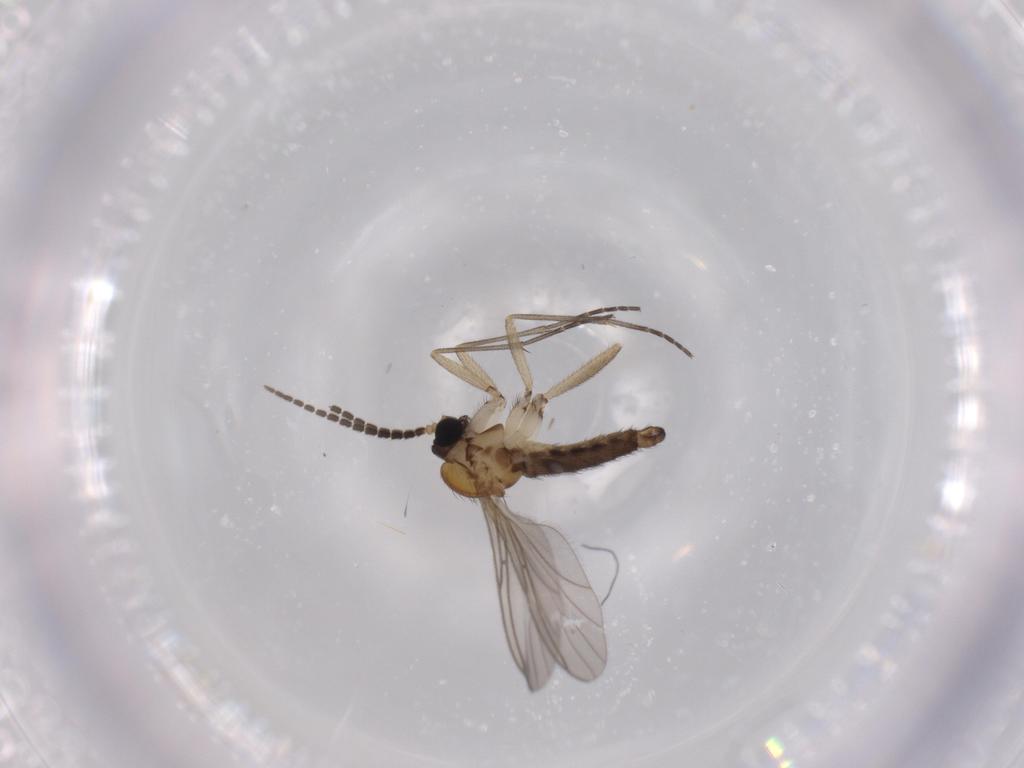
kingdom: Animalia
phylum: Arthropoda
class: Insecta
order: Diptera
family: Sciaridae
